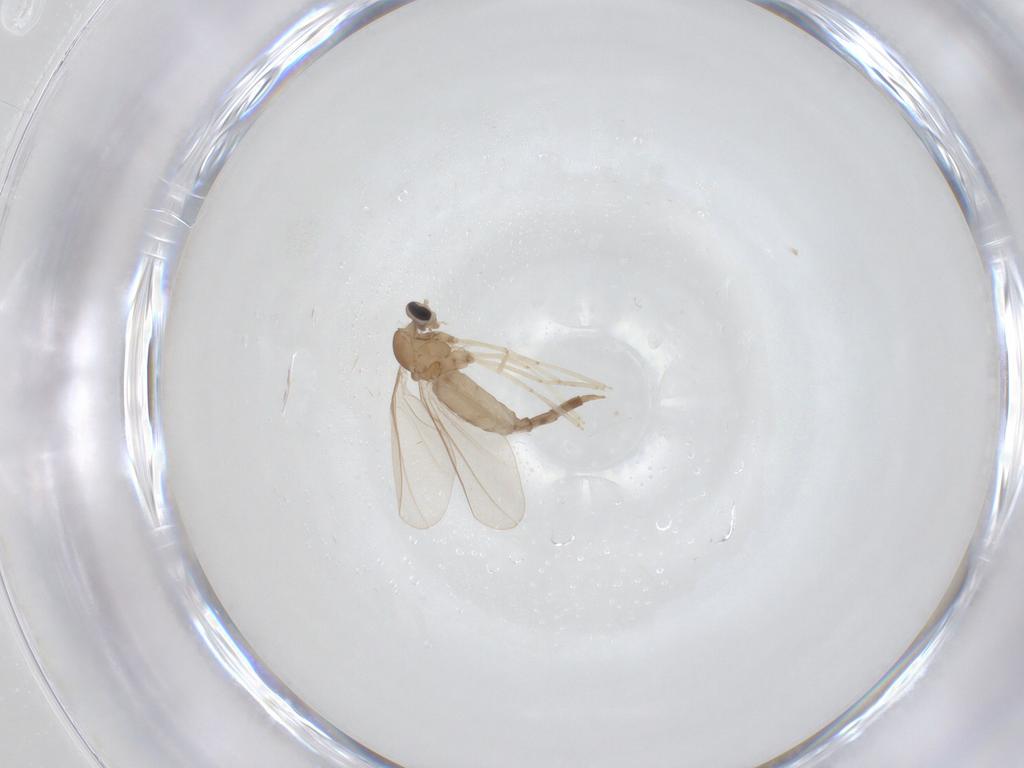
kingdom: Animalia
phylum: Arthropoda
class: Insecta
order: Diptera
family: Cecidomyiidae
